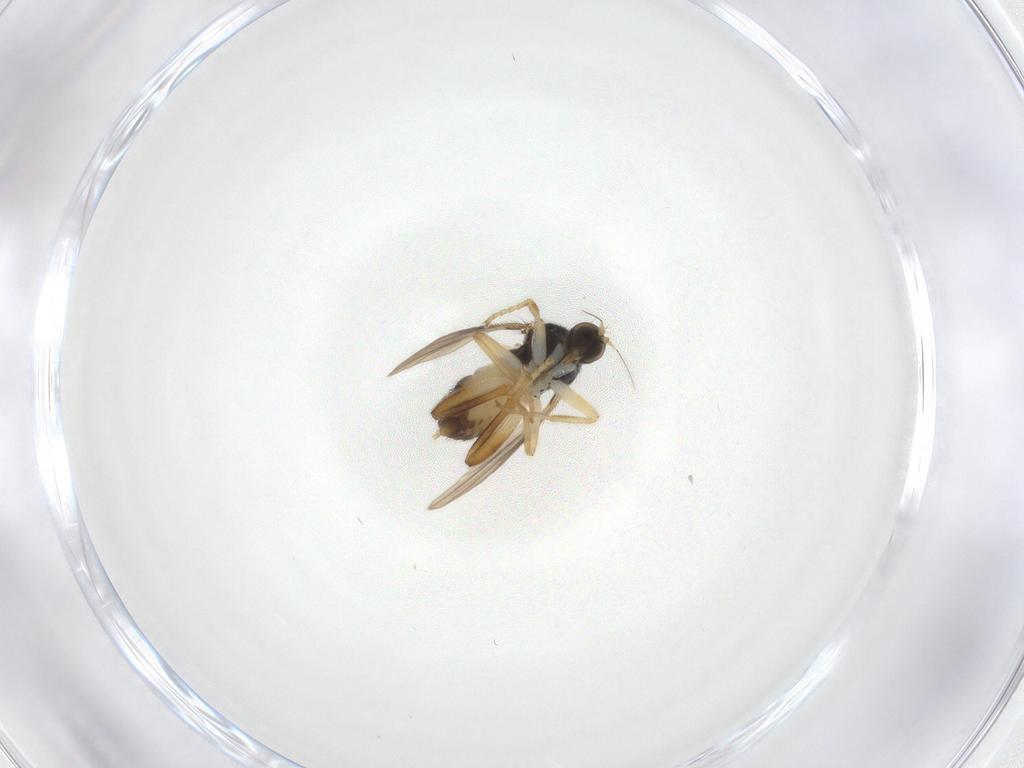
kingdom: Animalia
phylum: Arthropoda
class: Insecta
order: Diptera
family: Hybotidae
